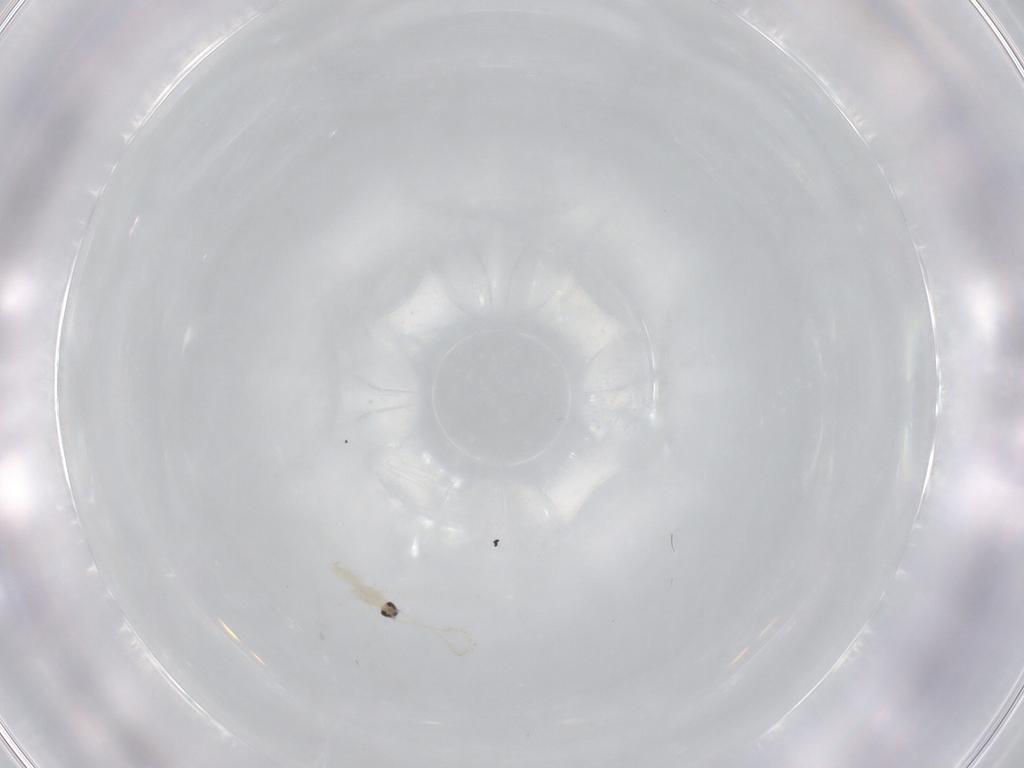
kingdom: Animalia
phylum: Arthropoda
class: Insecta
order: Diptera
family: Cecidomyiidae
